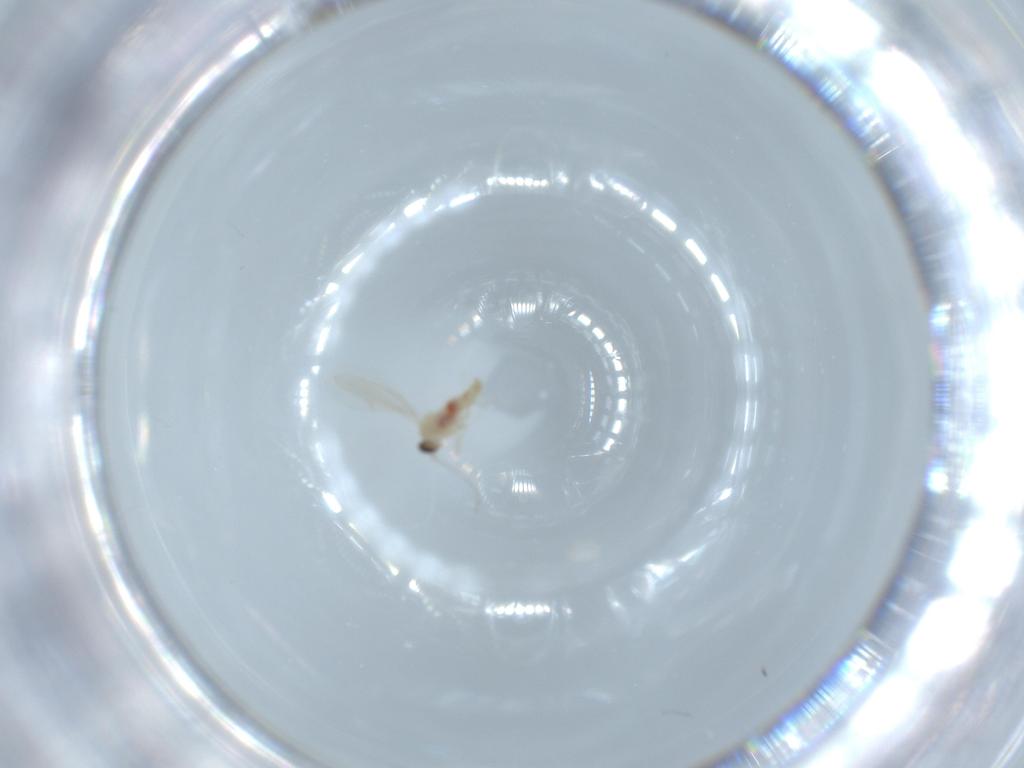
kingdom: Animalia
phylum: Arthropoda
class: Insecta
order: Diptera
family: Cecidomyiidae
